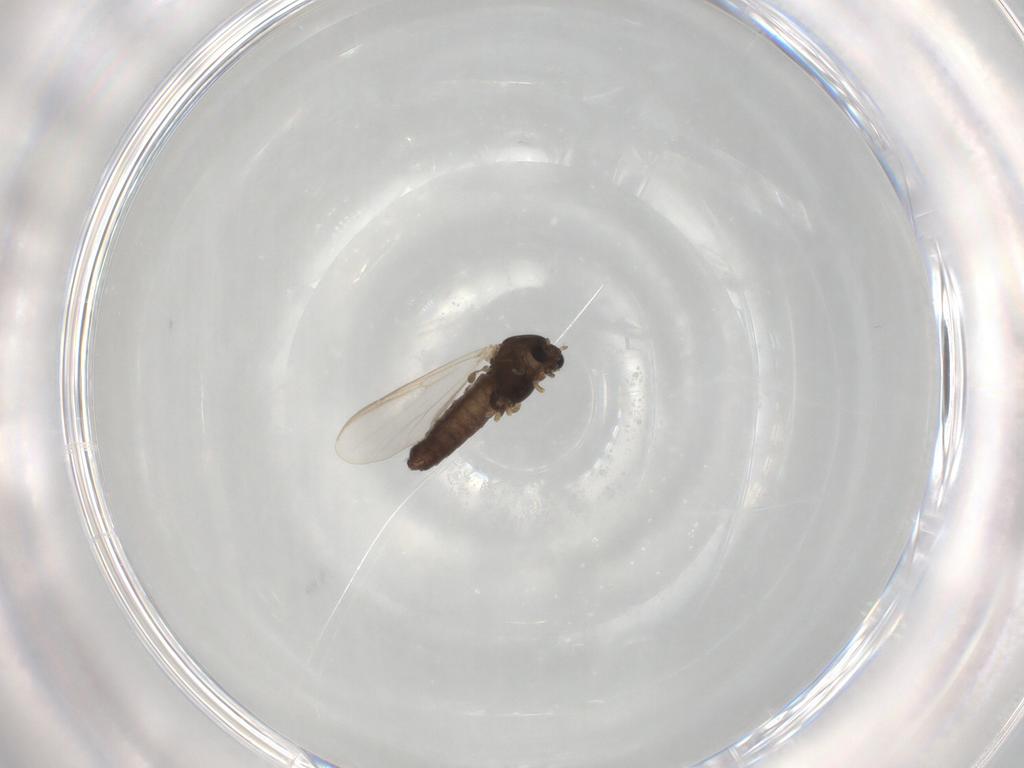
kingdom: Animalia
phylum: Arthropoda
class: Insecta
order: Diptera
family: Chironomidae
